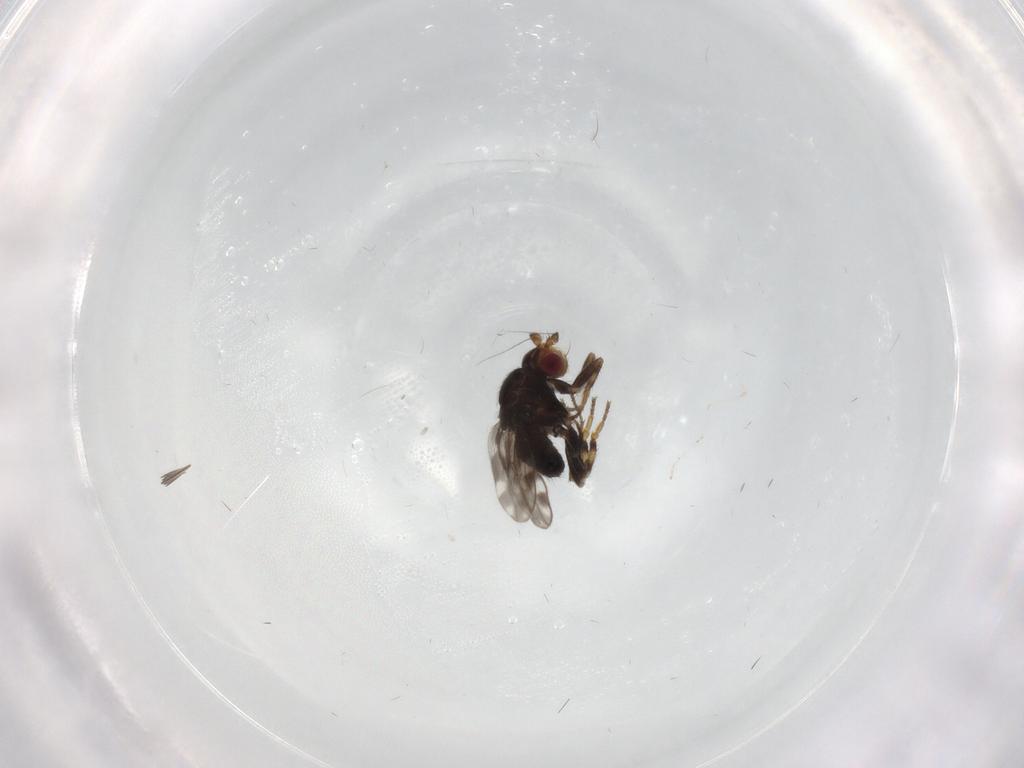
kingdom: Animalia
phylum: Arthropoda
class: Insecta
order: Diptera
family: Sphaeroceridae
